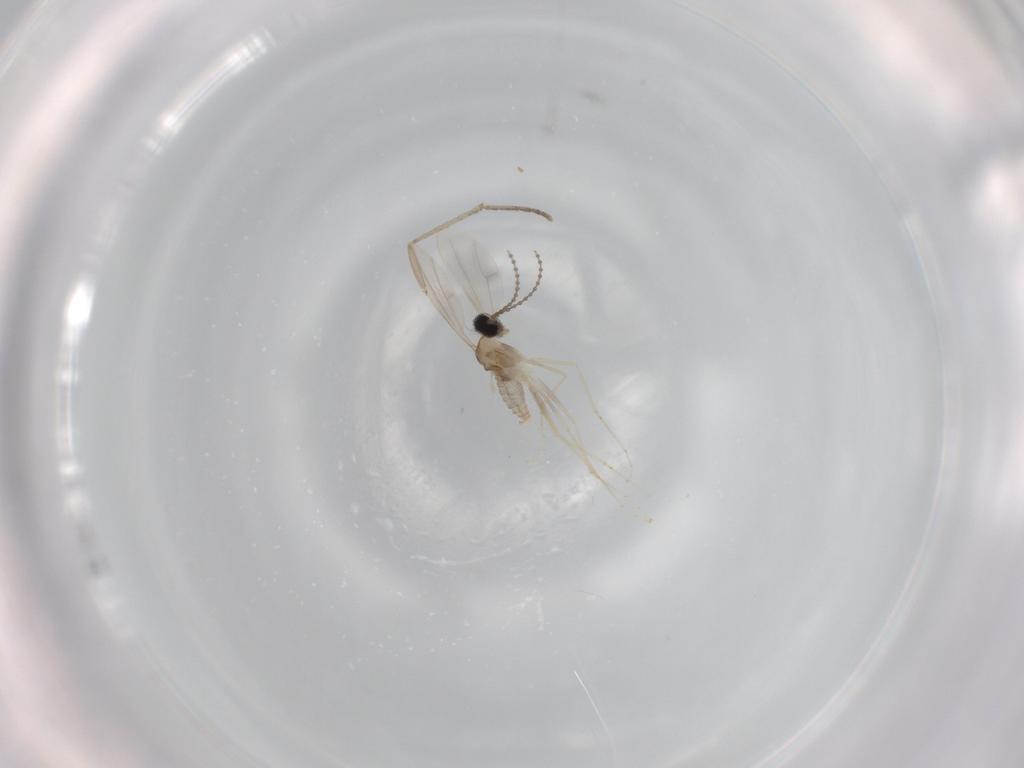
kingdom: Animalia
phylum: Arthropoda
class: Insecta
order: Diptera
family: Cecidomyiidae
